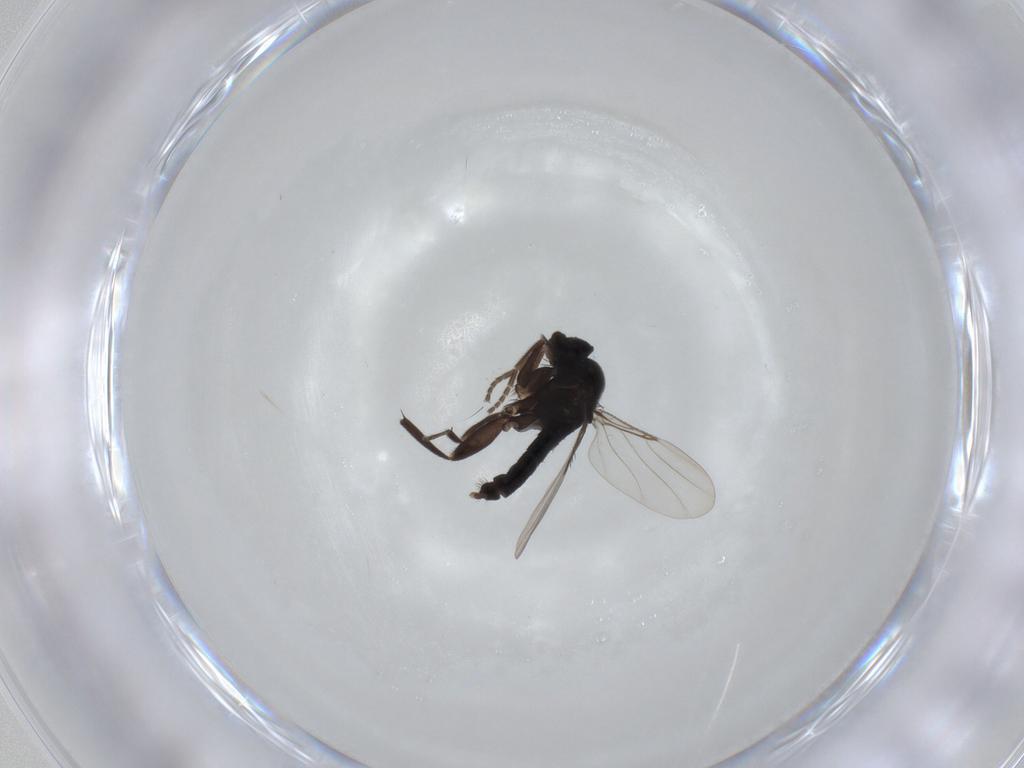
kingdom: Animalia
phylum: Arthropoda
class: Insecta
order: Diptera
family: Phoridae
